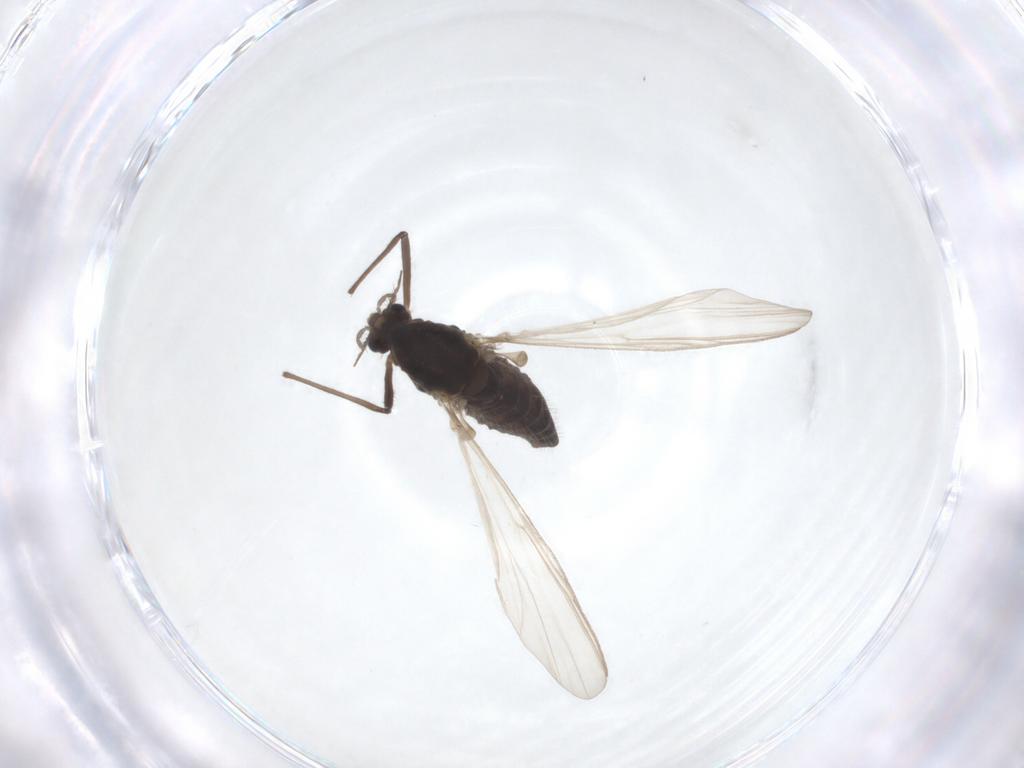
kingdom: Animalia
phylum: Arthropoda
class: Insecta
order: Diptera
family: Chironomidae
